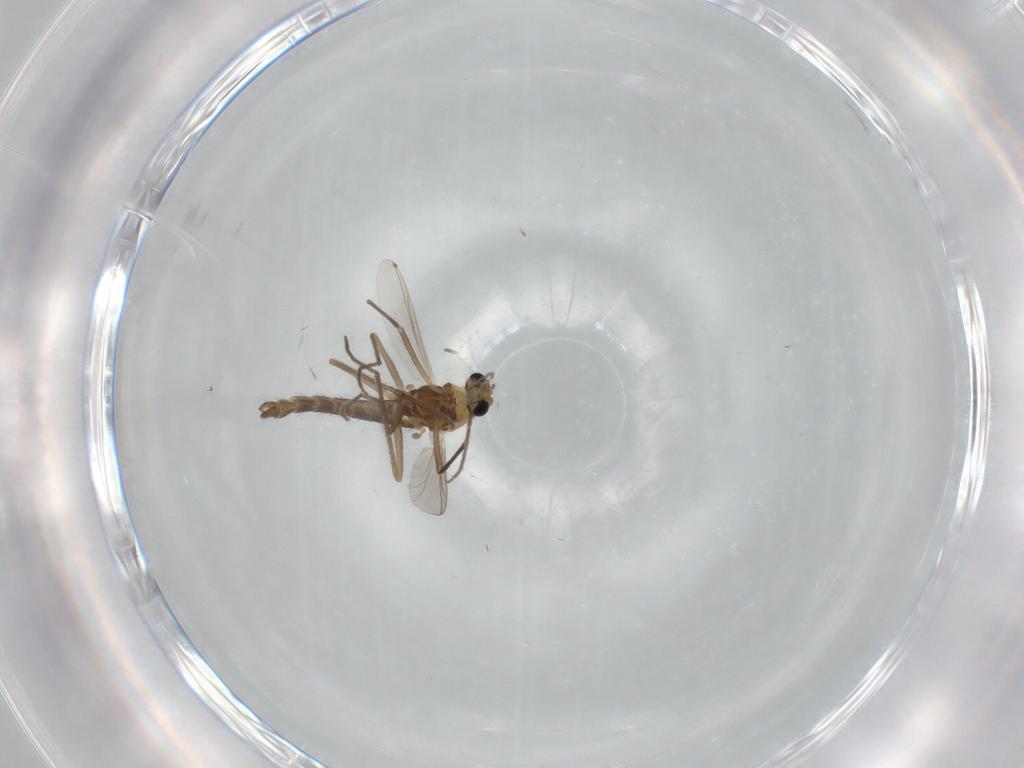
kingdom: Animalia
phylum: Arthropoda
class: Insecta
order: Diptera
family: Chironomidae
